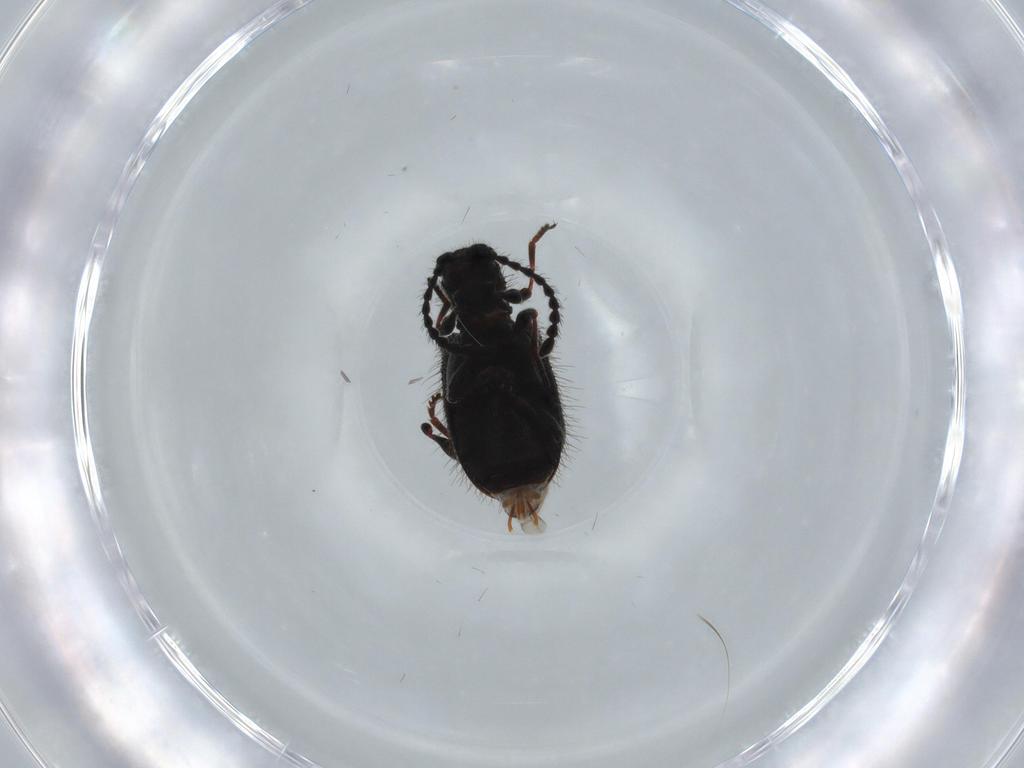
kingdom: Animalia
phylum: Arthropoda
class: Insecta
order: Coleoptera
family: Ptinidae
